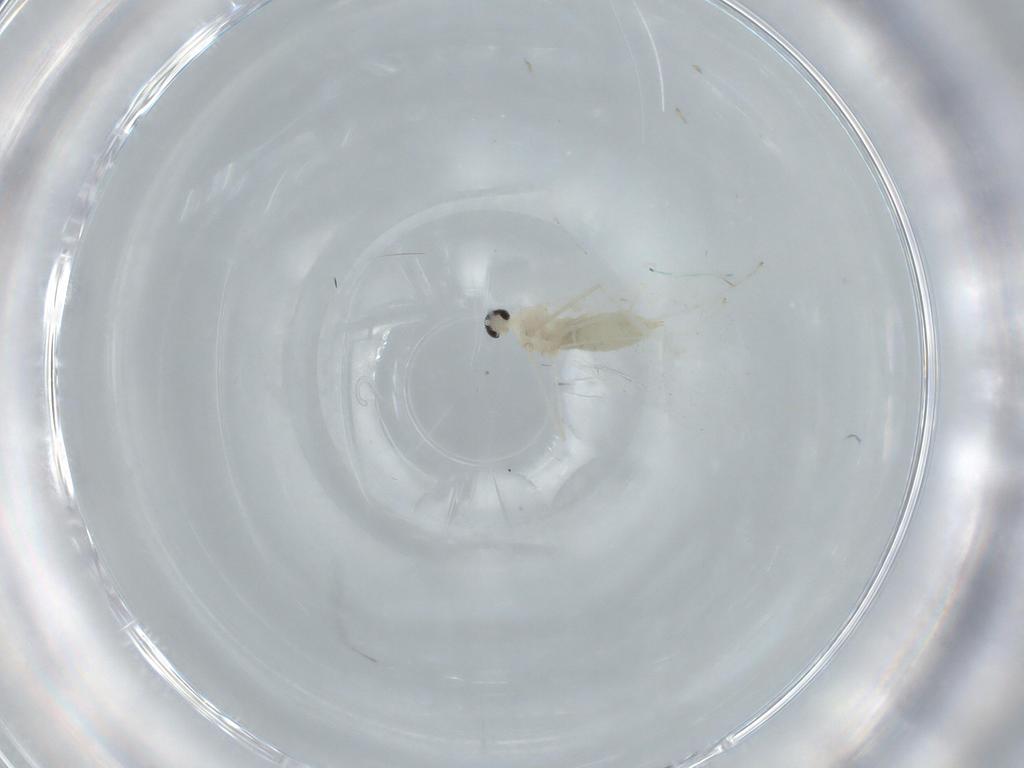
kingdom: Animalia
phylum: Arthropoda
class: Insecta
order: Diptera
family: Cecidomyiidae
